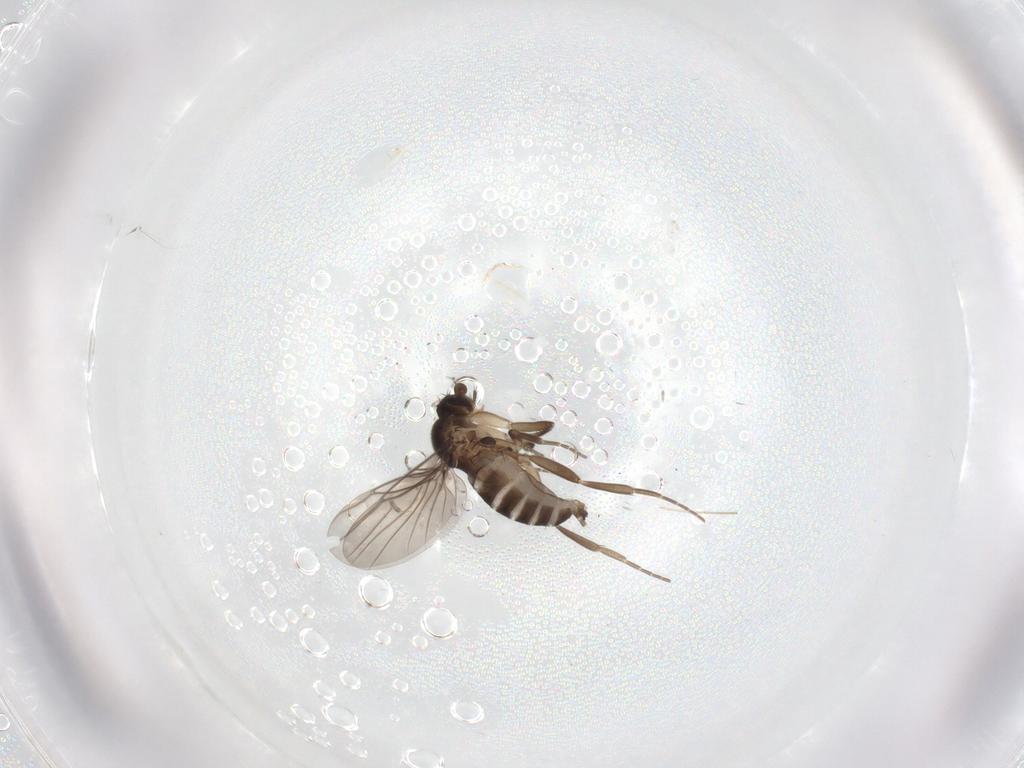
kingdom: Animalia
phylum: Arthropoda
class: Insecta
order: Diptera
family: Phoridae
